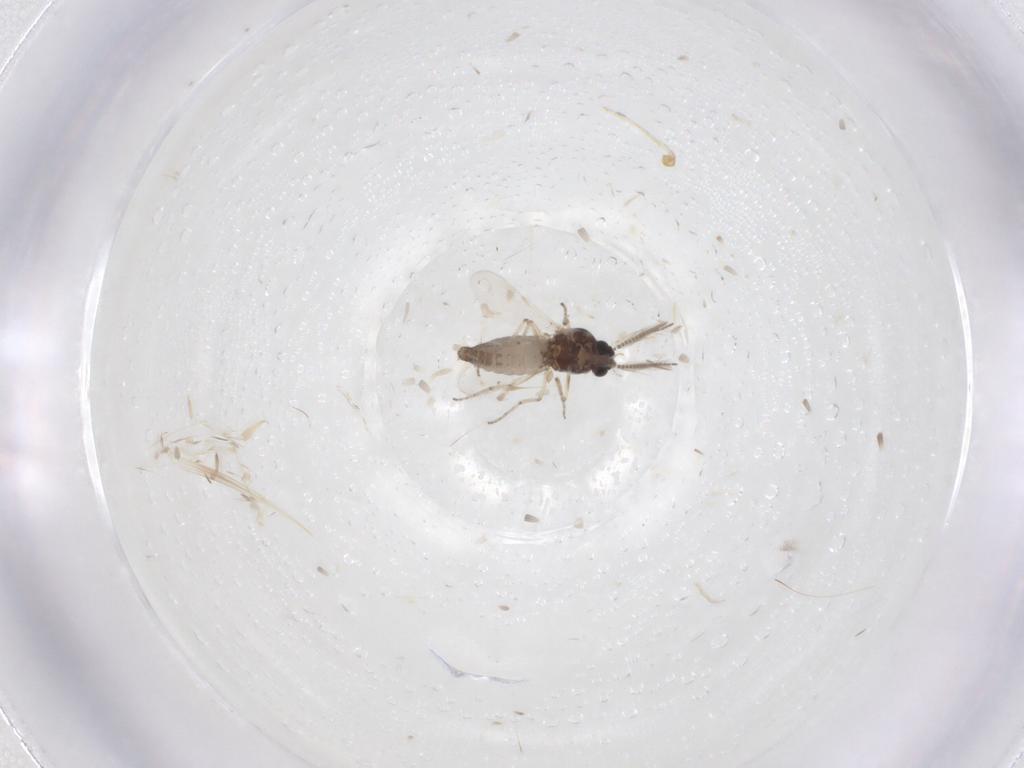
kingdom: Animalia
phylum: Arthropoda
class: Insecta
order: Diptera
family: Ceratopogonidae
